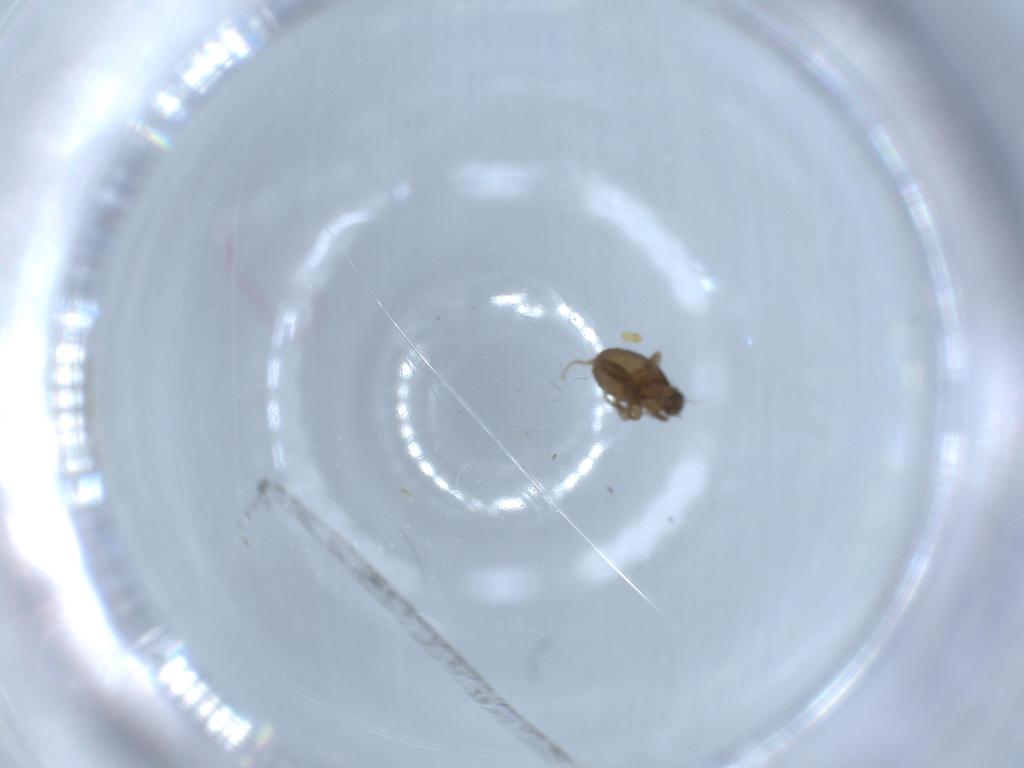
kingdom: Animalia
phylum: Arthropoda
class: Insecta
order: Diptera
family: Phoridae
